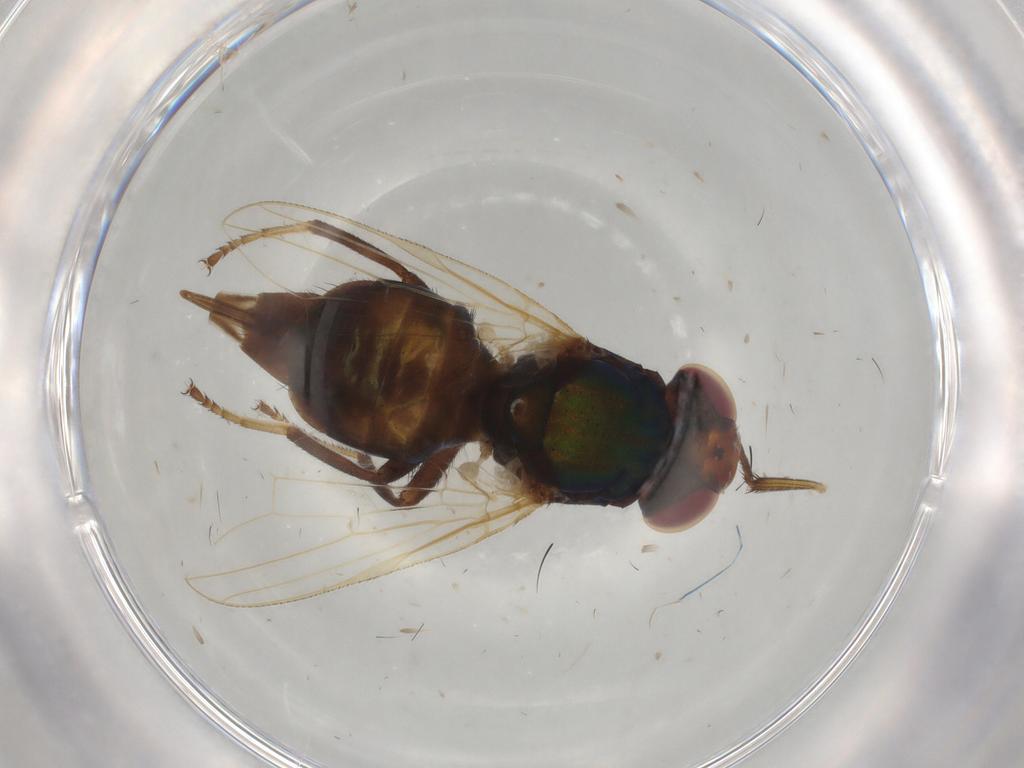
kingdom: Animalia
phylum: Arthropoda
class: Insecta
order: Diptera
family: Ulidiidae
